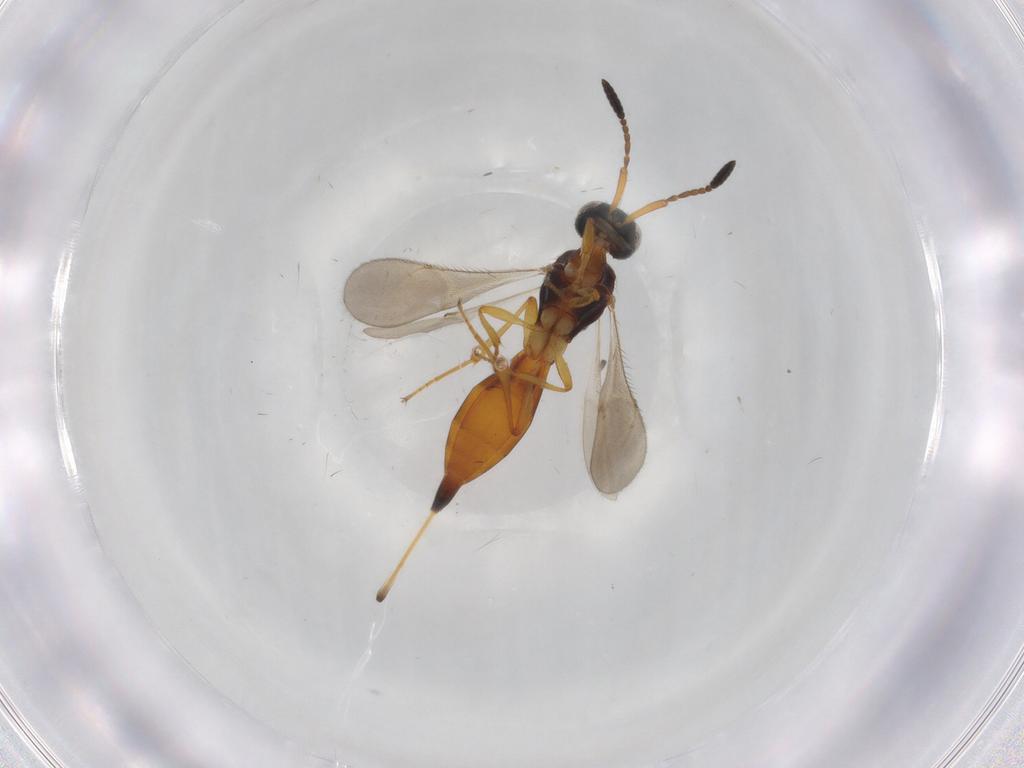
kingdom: Animalia
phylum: Arthropoda
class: Insecta
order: Hymenoptera
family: Scelionidae
